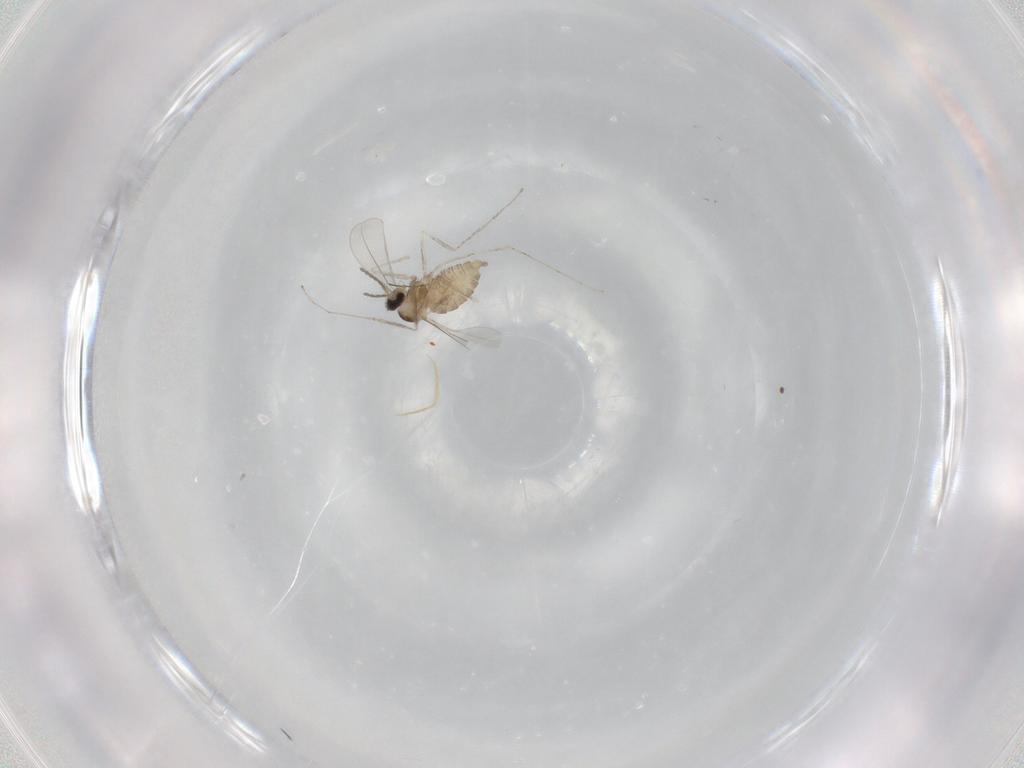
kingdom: Animalia
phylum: Arthropoda
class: Insecta
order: Diptera
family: Cecidomyiidae
